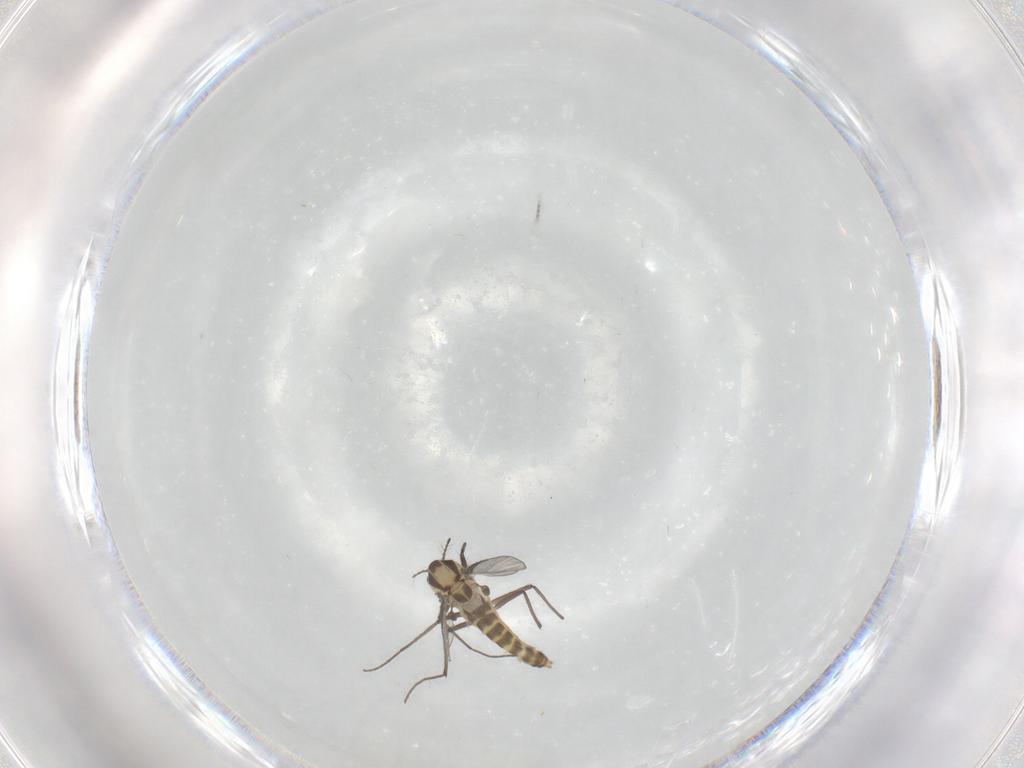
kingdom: Animalia
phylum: Arthropoda
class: Insecta
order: Diptera
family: Chironomidae
